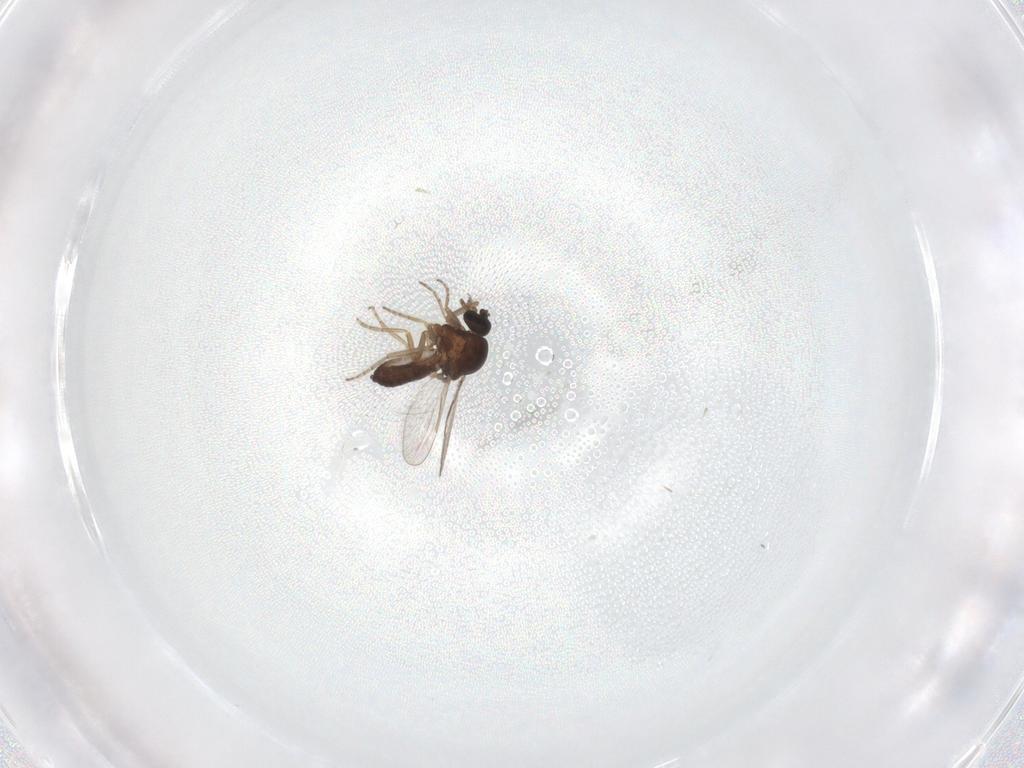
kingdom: Animalia
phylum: Arthropoda
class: Insecta
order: Diptera
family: Ceratopogonidae
